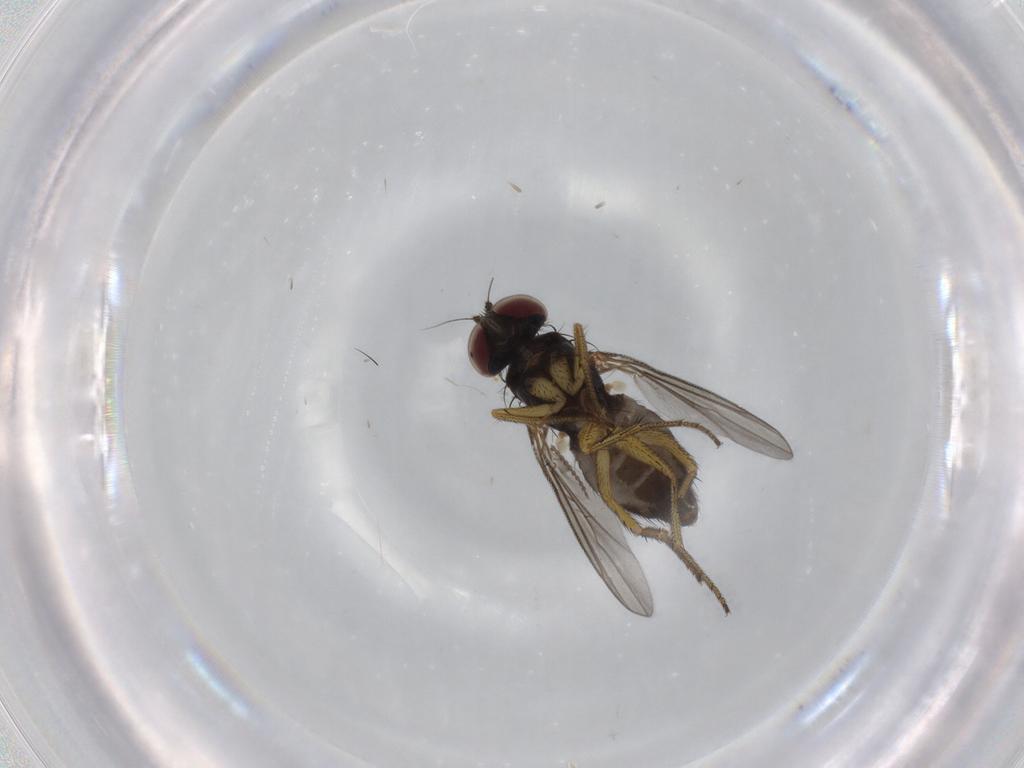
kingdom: Animalia
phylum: Arthropoda
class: Insecta
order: Diptera
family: Dolichopodidae
